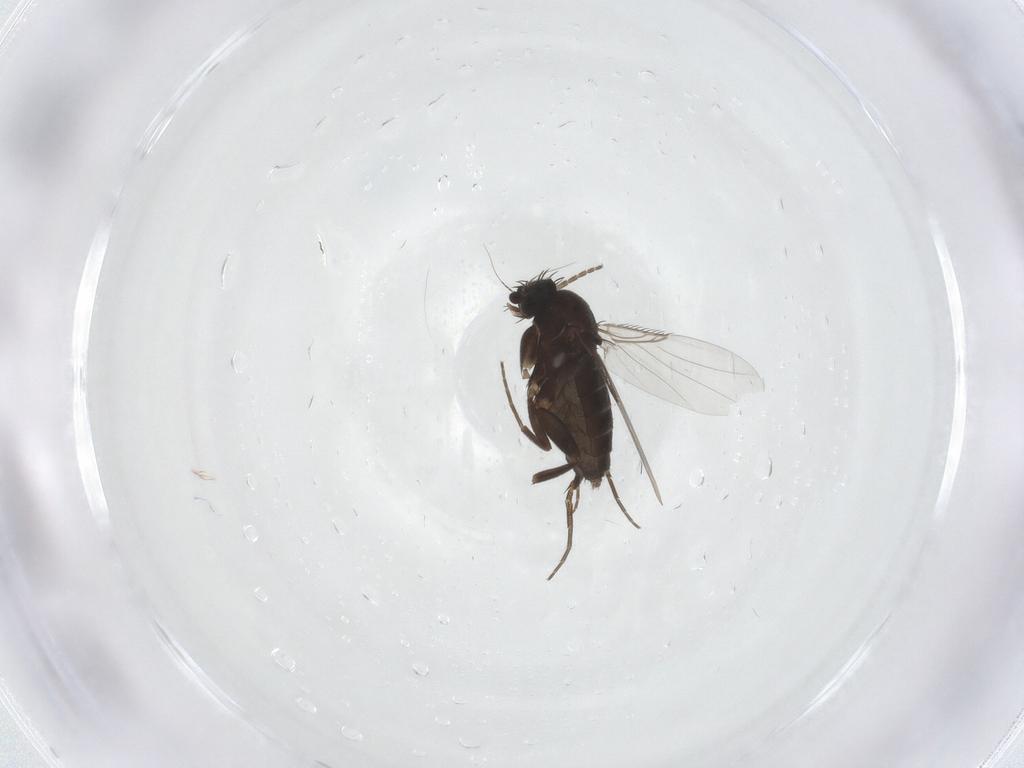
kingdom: Animalia
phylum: Arthropoda
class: Insecta
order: Diptera
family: Phoridae
